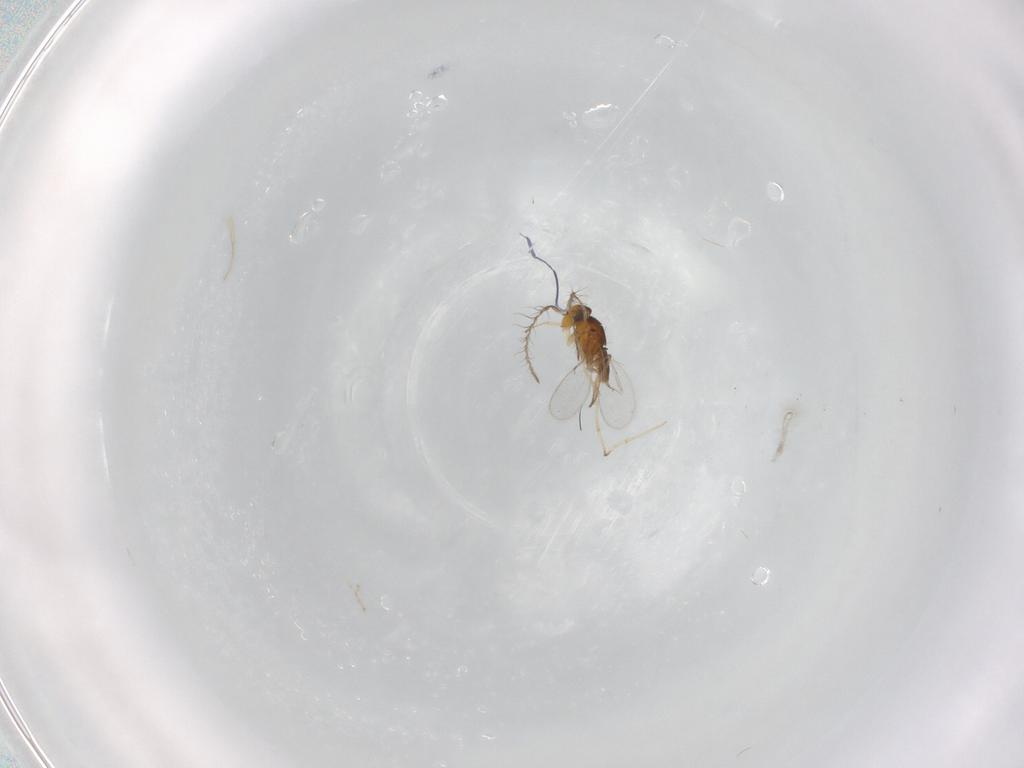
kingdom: Animalia
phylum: Arthropoda
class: Insecta
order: Hymenoptera
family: Encyrtidae
